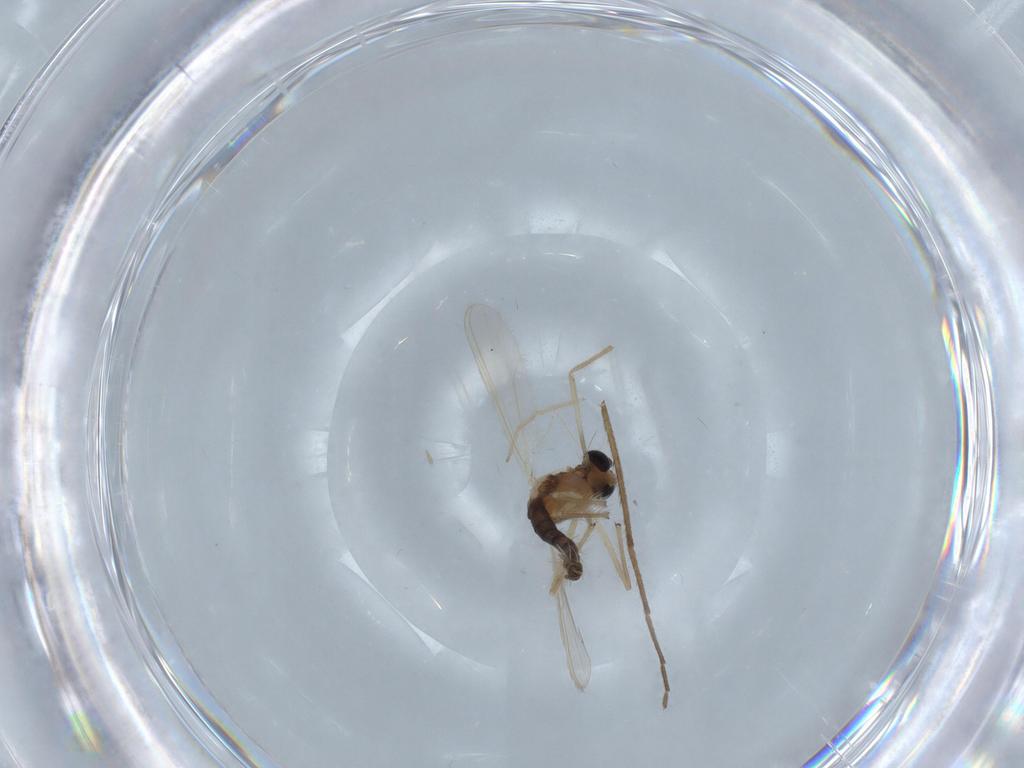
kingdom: Animalia
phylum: Arthropoda
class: Insecta
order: Diptera
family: Chironomidae
